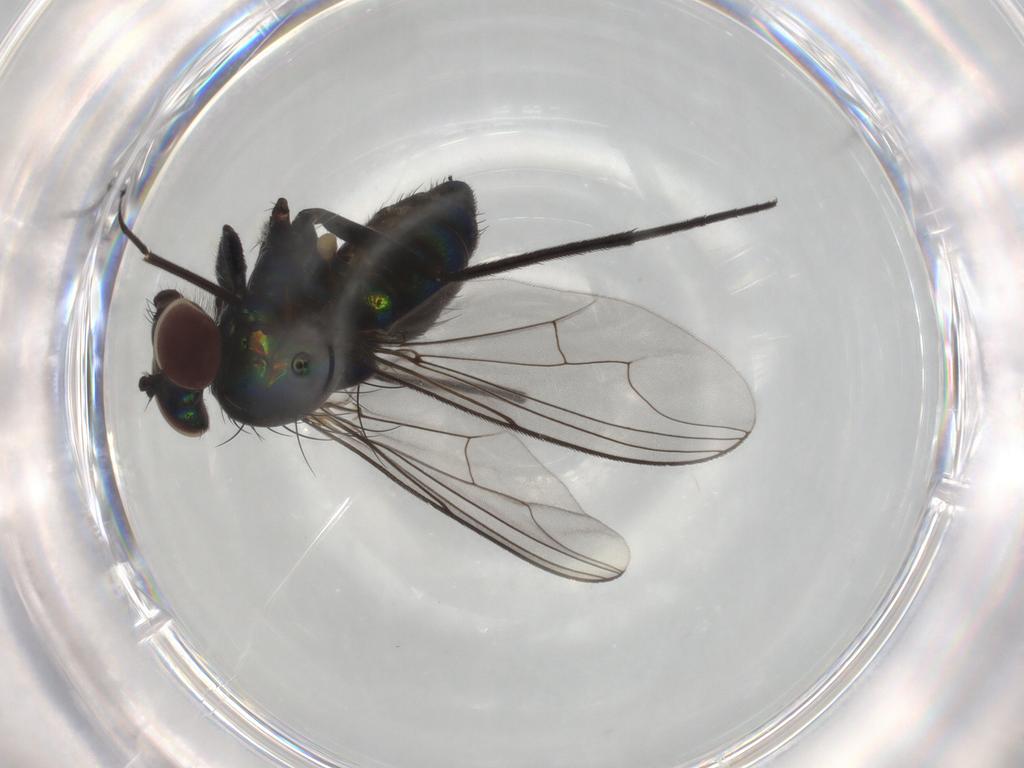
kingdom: Animalia
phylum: Arthropoda
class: Insecta
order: Diptera
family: Dolichopodidae
